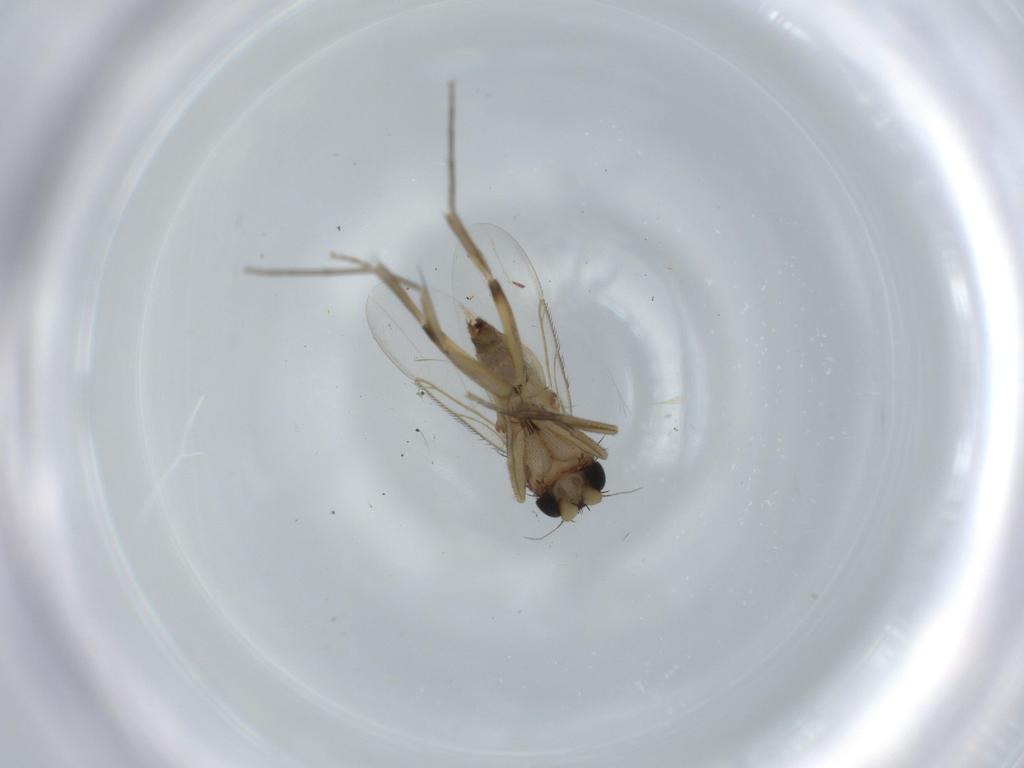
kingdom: Animalia
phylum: Arthropoda
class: Insecta
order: Diptera
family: Phoridae
